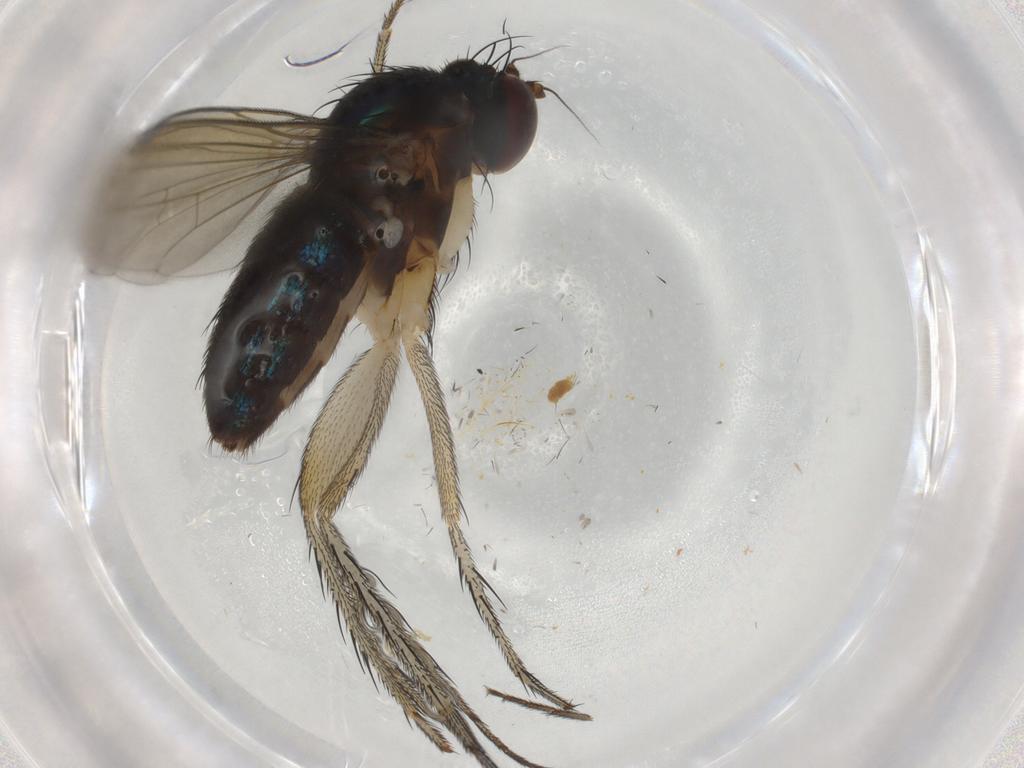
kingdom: Animalia
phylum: Arthropoda
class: Insecta
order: Diptera
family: Dolichopodidae
